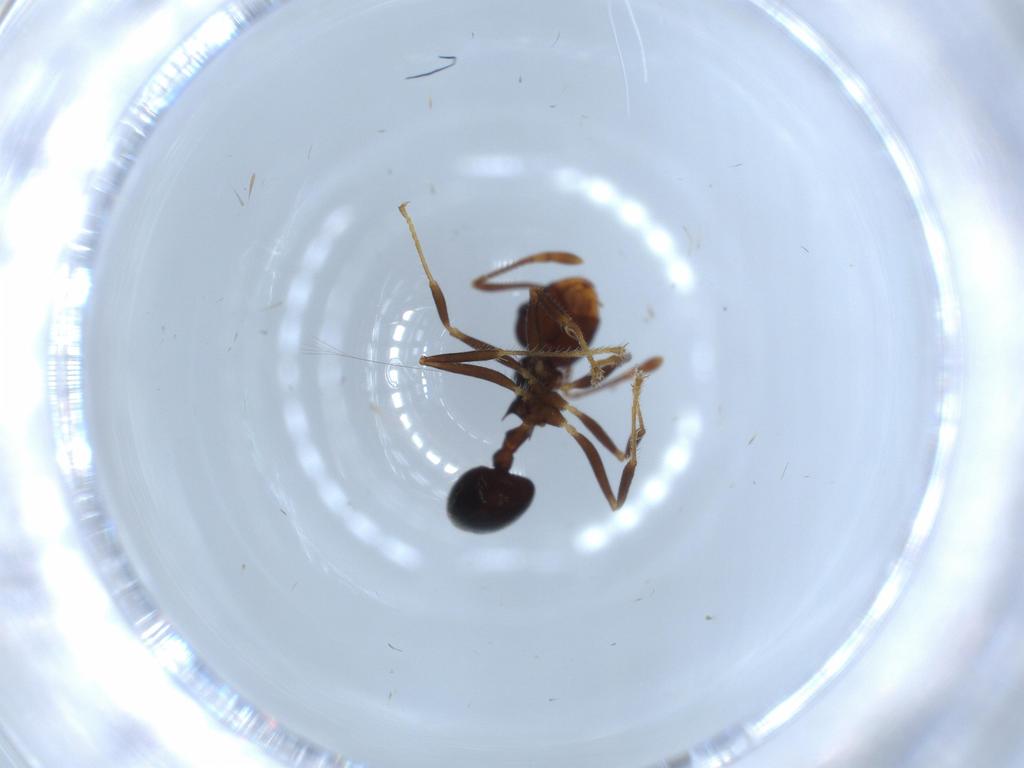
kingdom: Animalia
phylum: Arthropoda
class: Insecta
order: Hymenoptera
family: Formicidae
